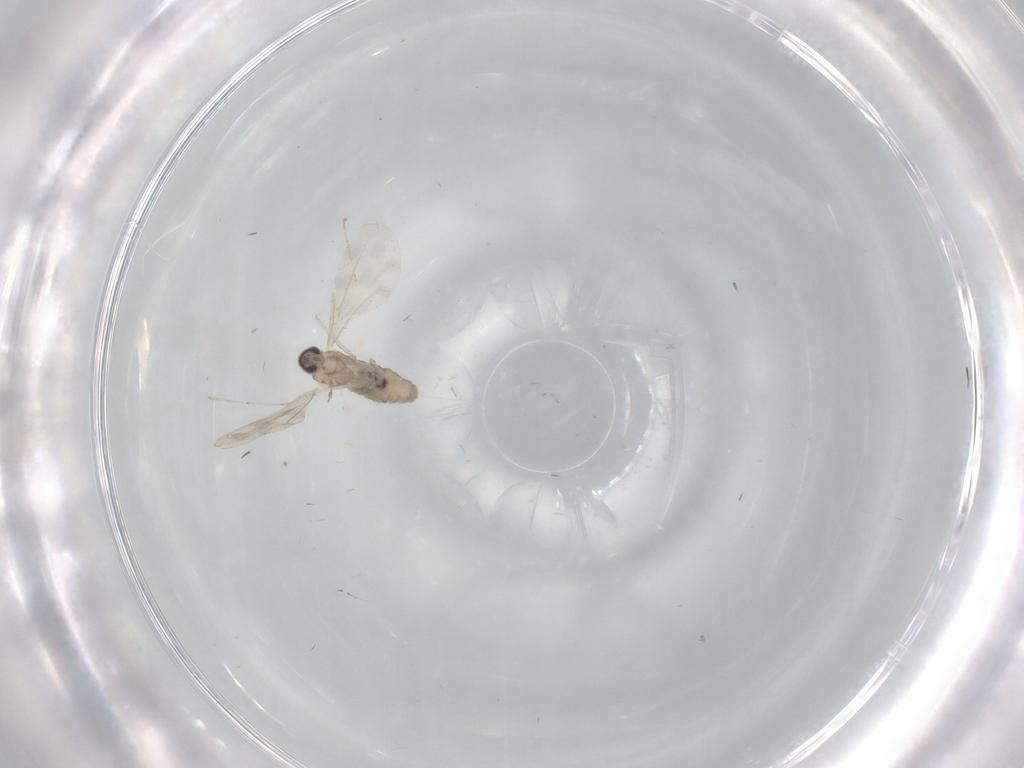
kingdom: Animalia
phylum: Arthropoda
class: Insecta
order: Diptera
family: Cecidomyiidae
